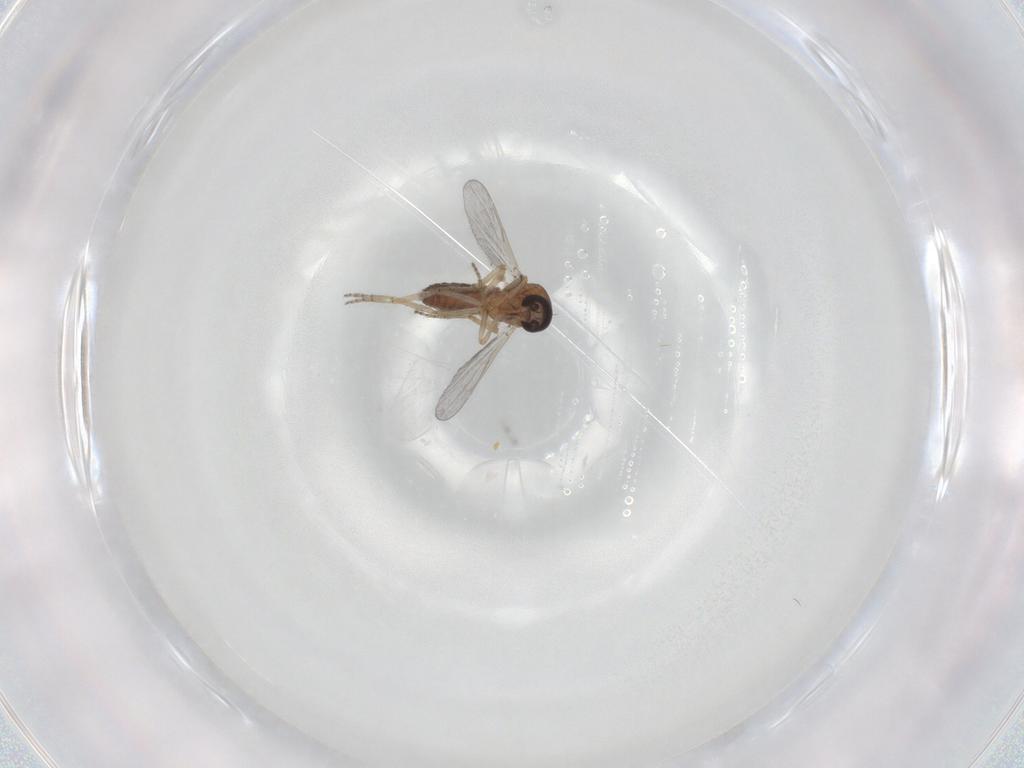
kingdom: Animalia
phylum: Arthropoda
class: Insecta
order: Diptera
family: Ceratopogonidae
